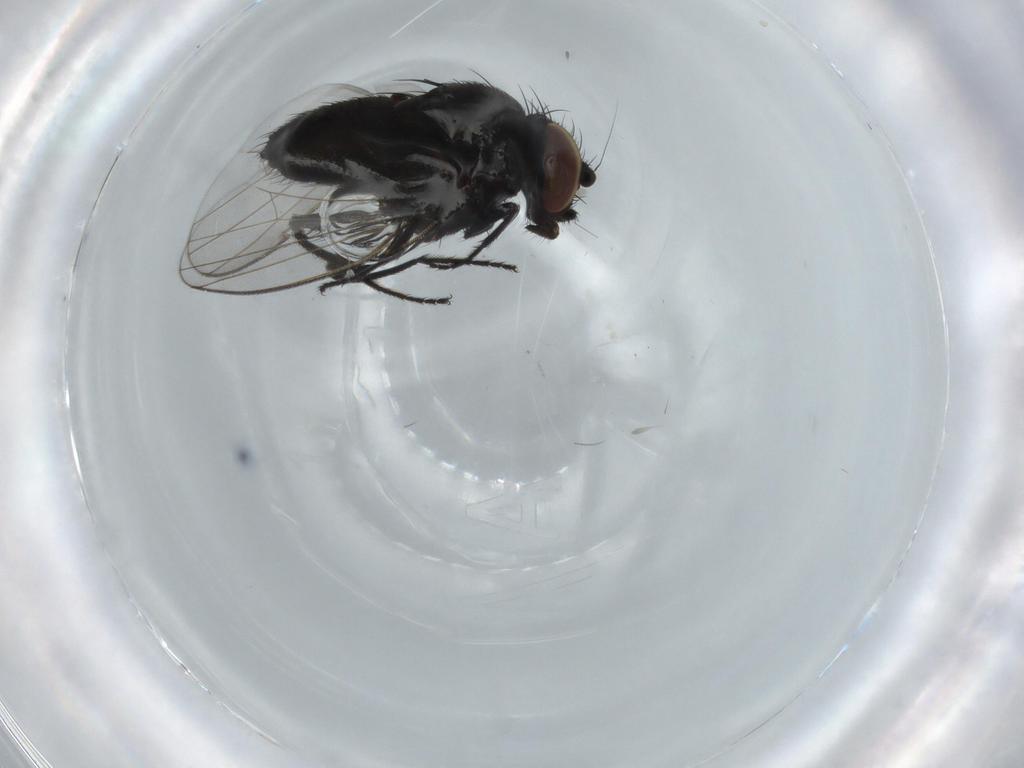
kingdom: Animalia
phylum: Arthropoda
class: Insecta
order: Diptera
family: Milichiidae
